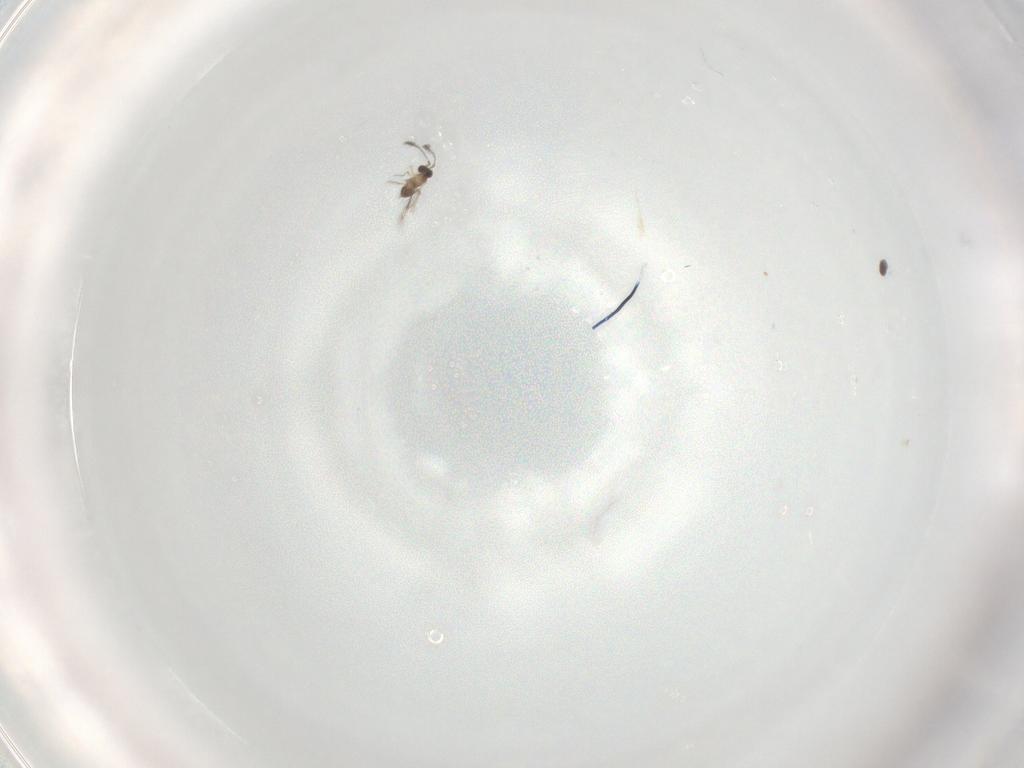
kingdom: Animalia
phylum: Arthropoda
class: Insecta
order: Hymenoptera
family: Mymaridae
